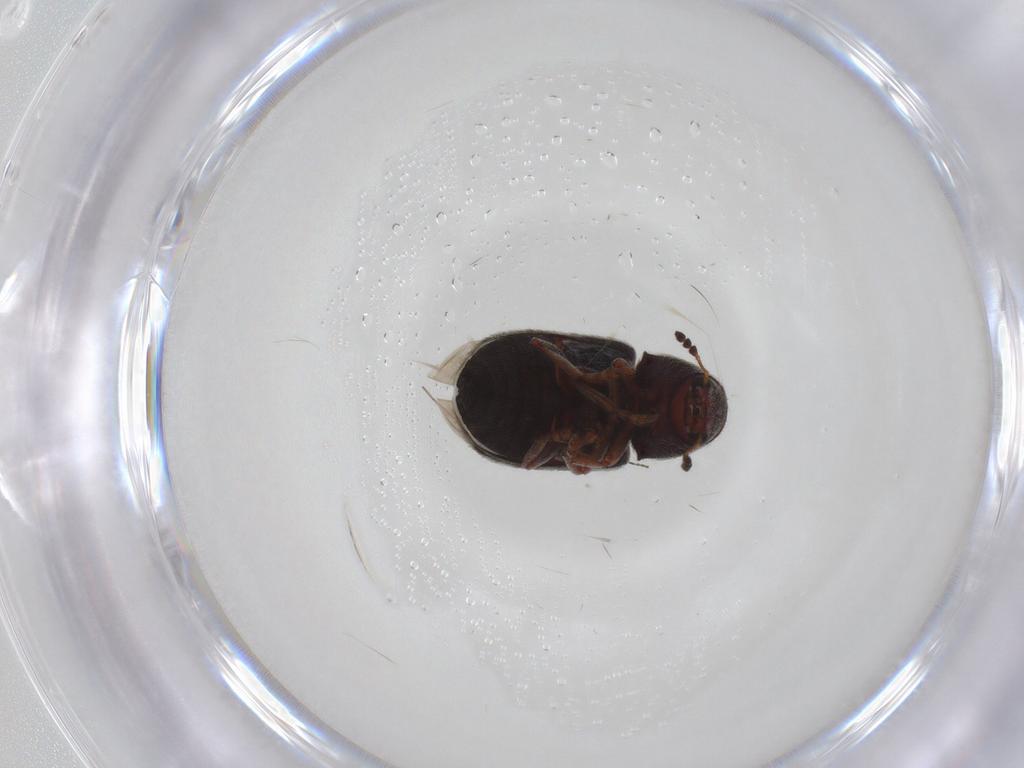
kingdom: Animalia
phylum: Arthropoda
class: Insecta
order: Coleoptera
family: Anthribidae
